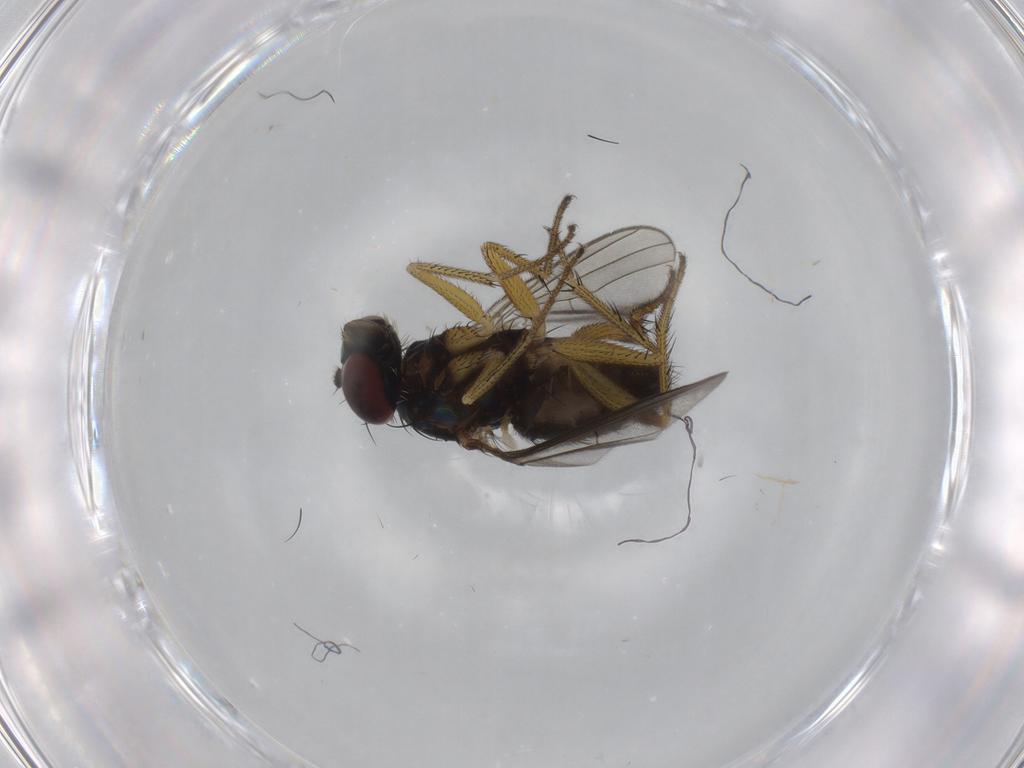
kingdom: Animalia
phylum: Arthropoda
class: Insecta
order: Diptera
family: Dolichopodidae
